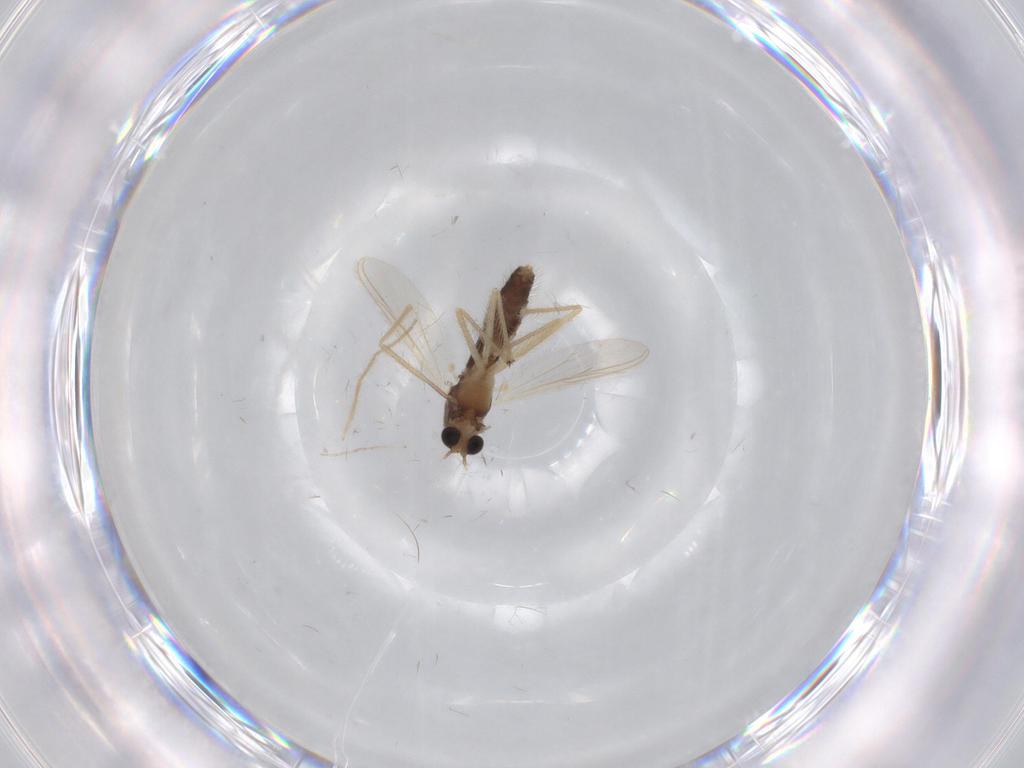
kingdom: Animalia
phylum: Arthropoda
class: Insecta
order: Diptera
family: Chironomidae
